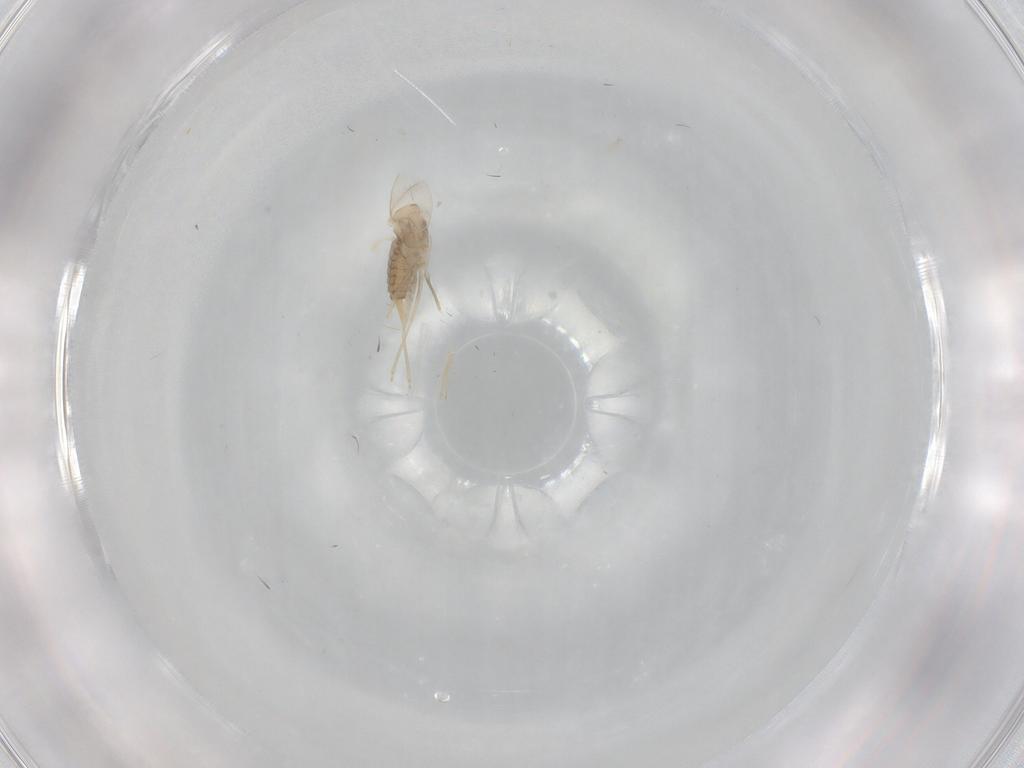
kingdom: Animalia
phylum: Arthropoda
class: Insecta
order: Diptera
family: Cecidomyiidae
